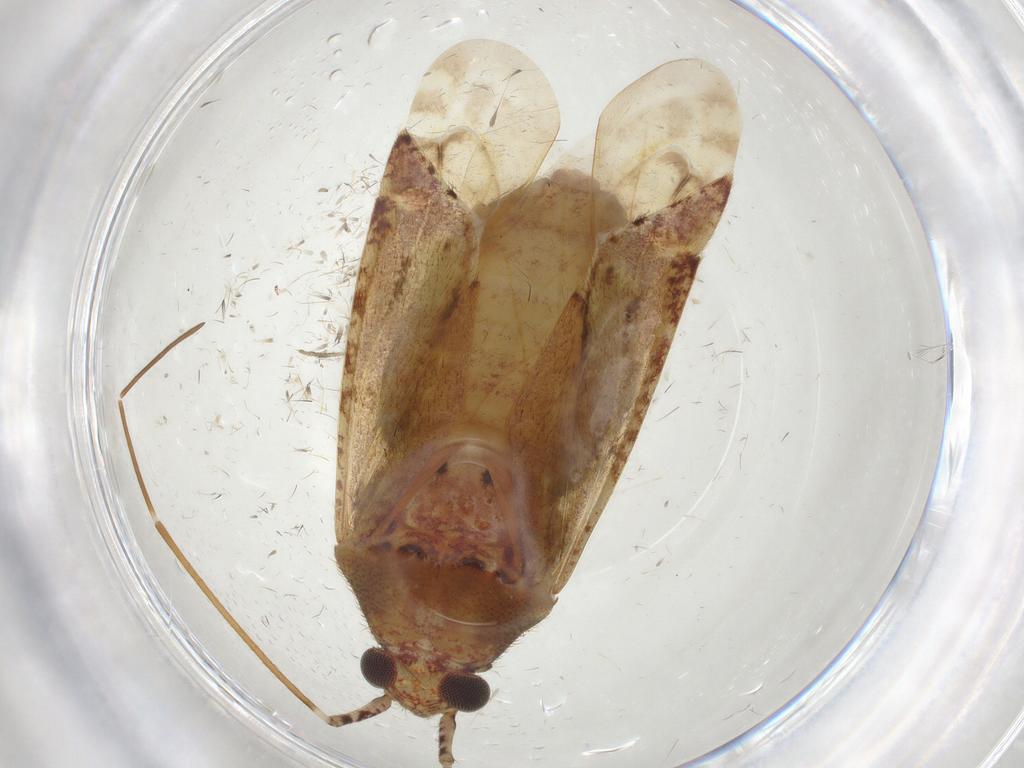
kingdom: Animalia
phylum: Arthropoda
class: Insecta
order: Hemiptera
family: Miridae
